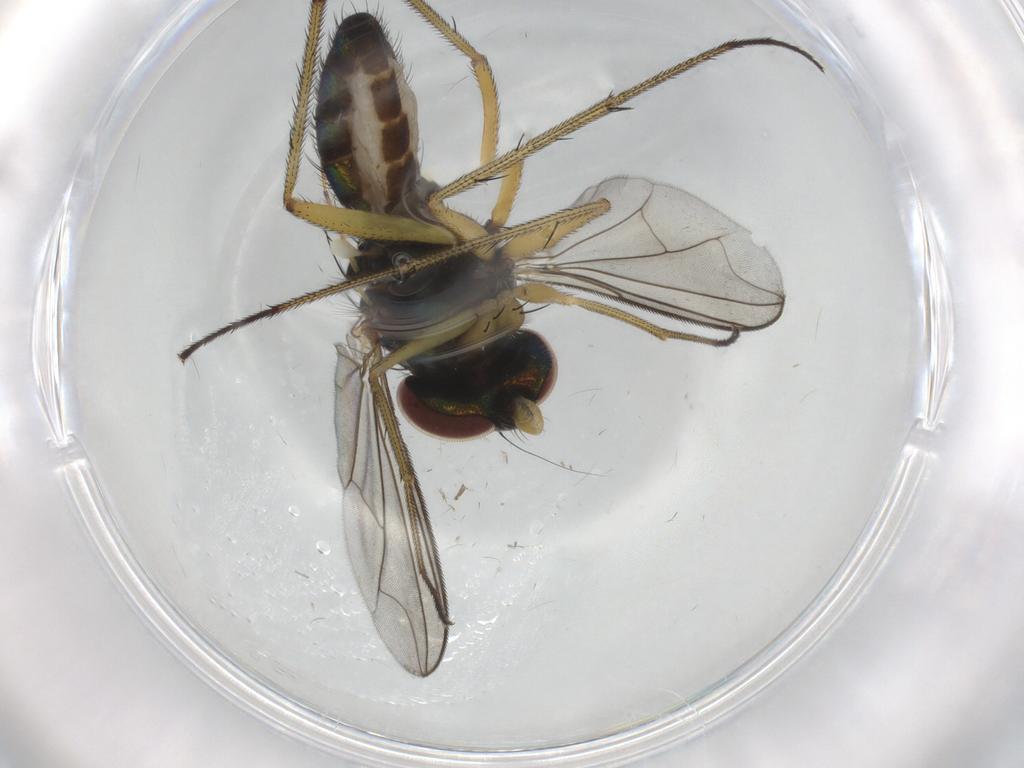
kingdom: Animalia
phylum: Arthropoda
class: Insecta
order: Diptera
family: Dolichopodidae
